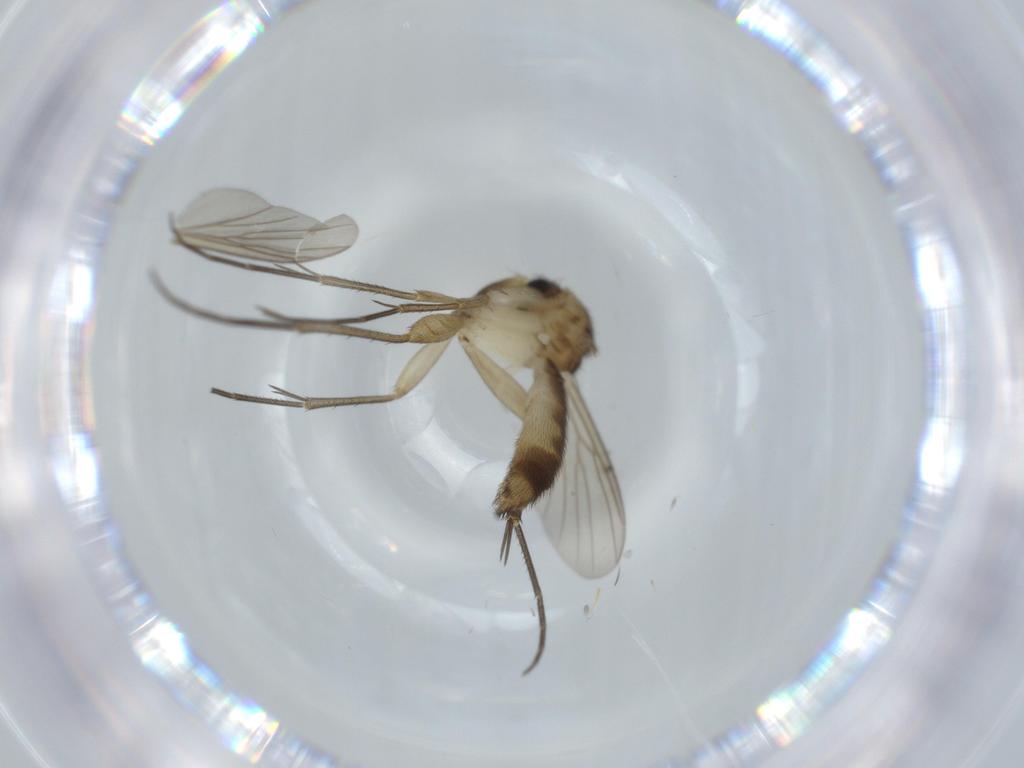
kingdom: Animalia
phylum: Arthropoda
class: Insecta
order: Diptera
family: Mycetophilidae
